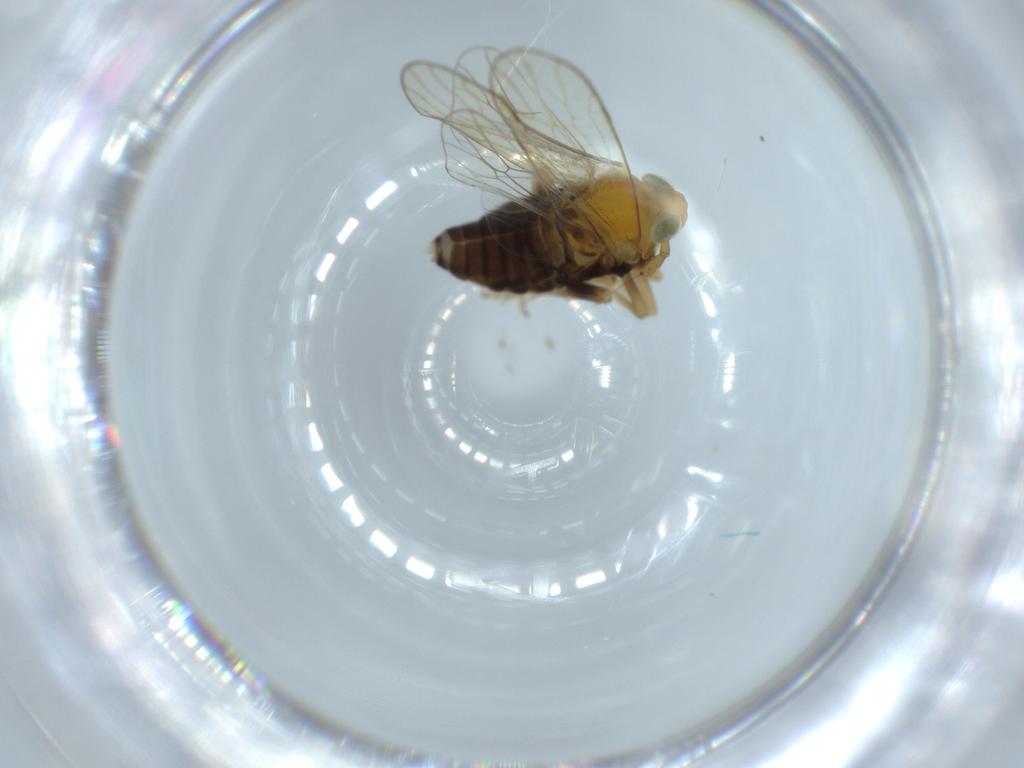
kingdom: Animalia
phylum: Arthropoda
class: Insecta
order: Hemiptera
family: Delphacidae
